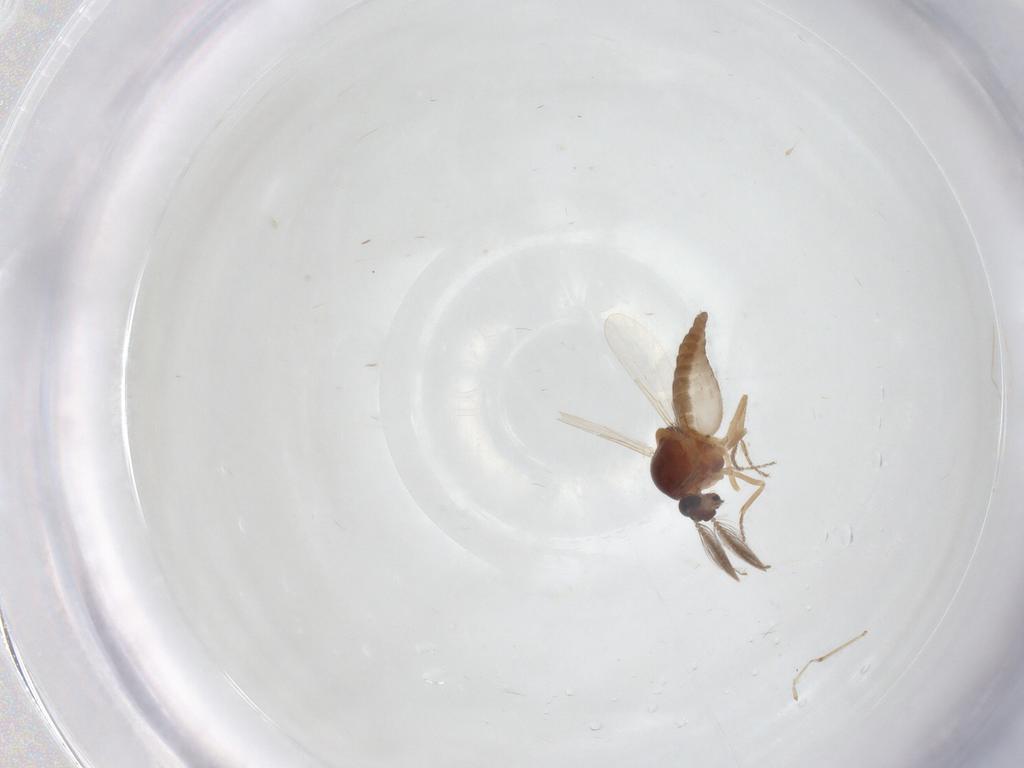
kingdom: Animalia
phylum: Arthropoda
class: Insecta
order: Diptera
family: Ceratopogonidae
